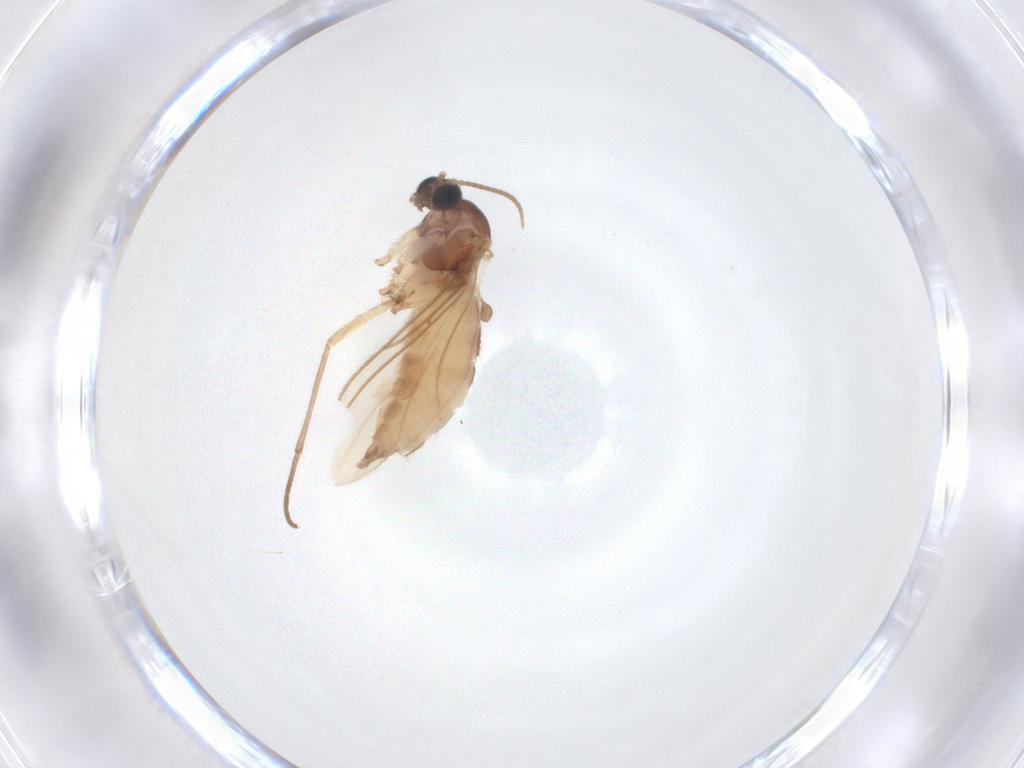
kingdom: Animalia
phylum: Arthropoda
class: Insecta
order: Diptera
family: Sciaridae
